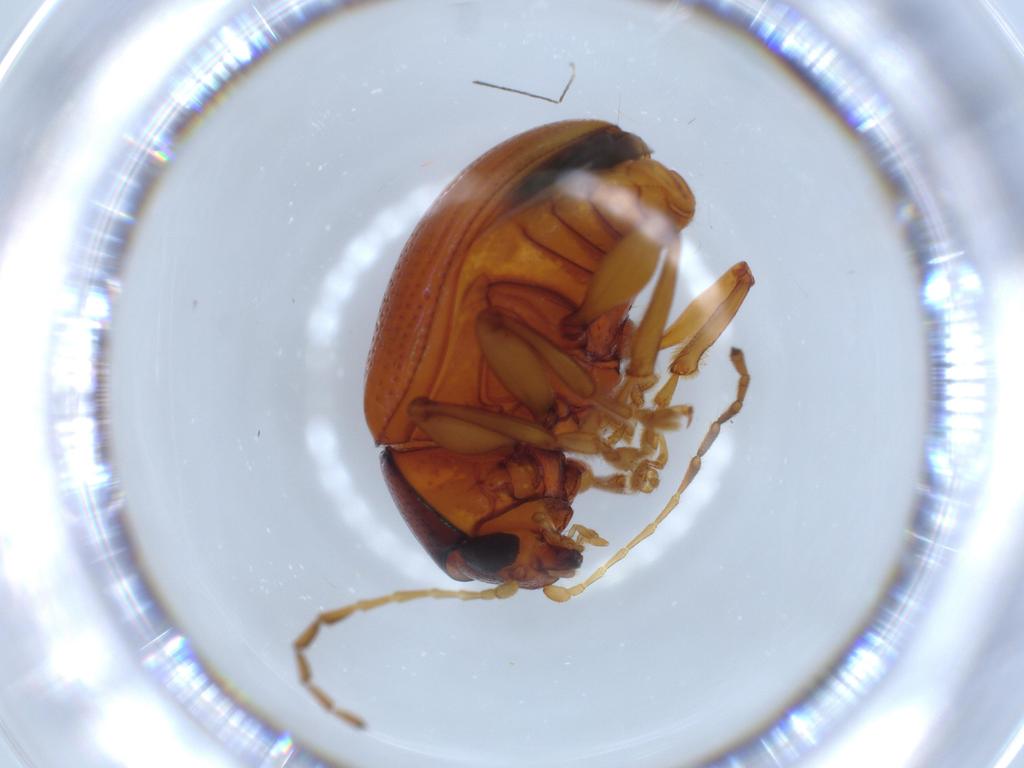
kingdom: Animalia
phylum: Arthropoda
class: Insecta
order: Coleoptera
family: Chrysomelidae
